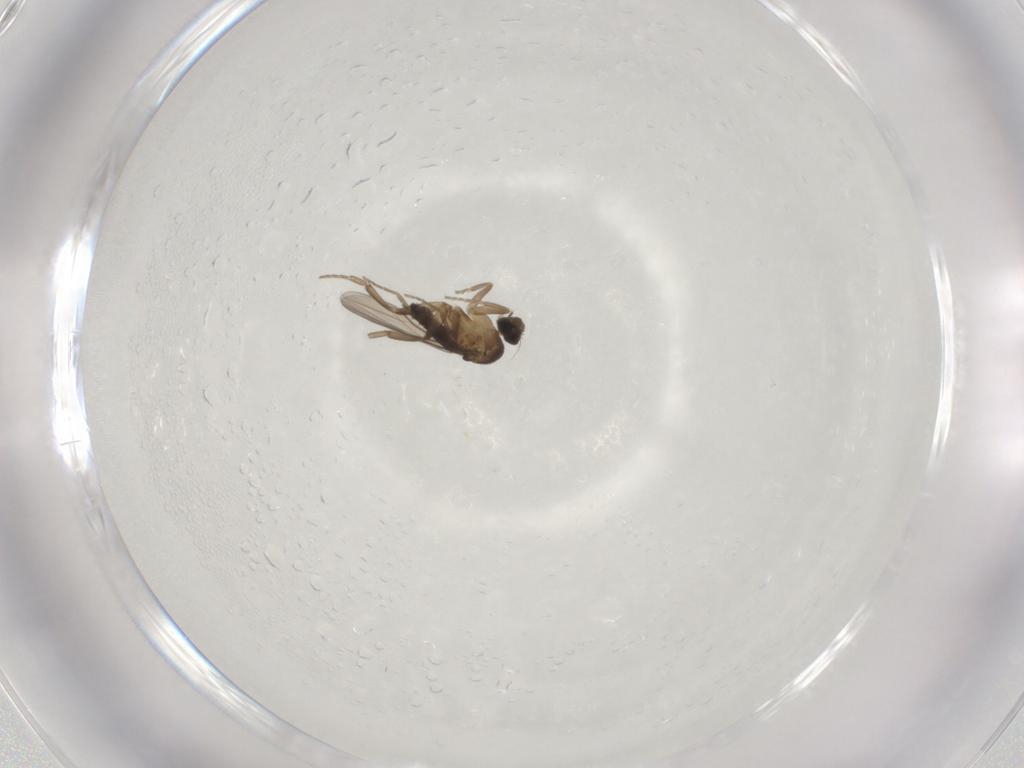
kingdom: Animalia
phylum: Arthropoda
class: Insecta
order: Diptera
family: Phoridae
